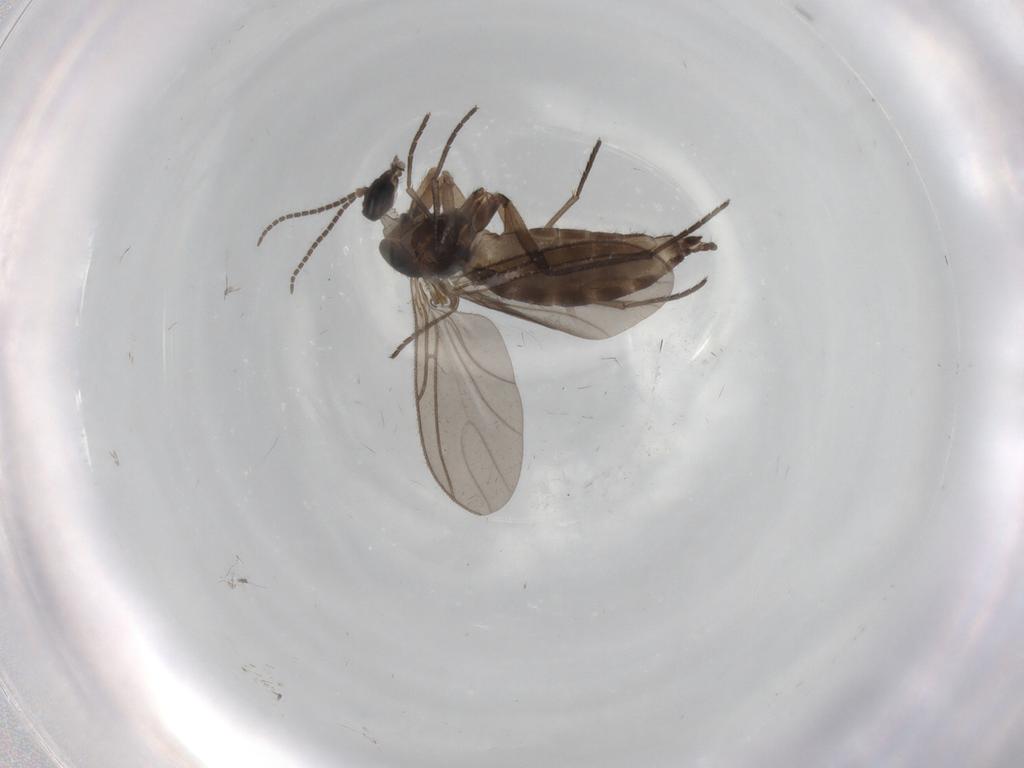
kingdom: Animalia
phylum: Arthropoda
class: Insecta
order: Diptera
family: Sciaridae
